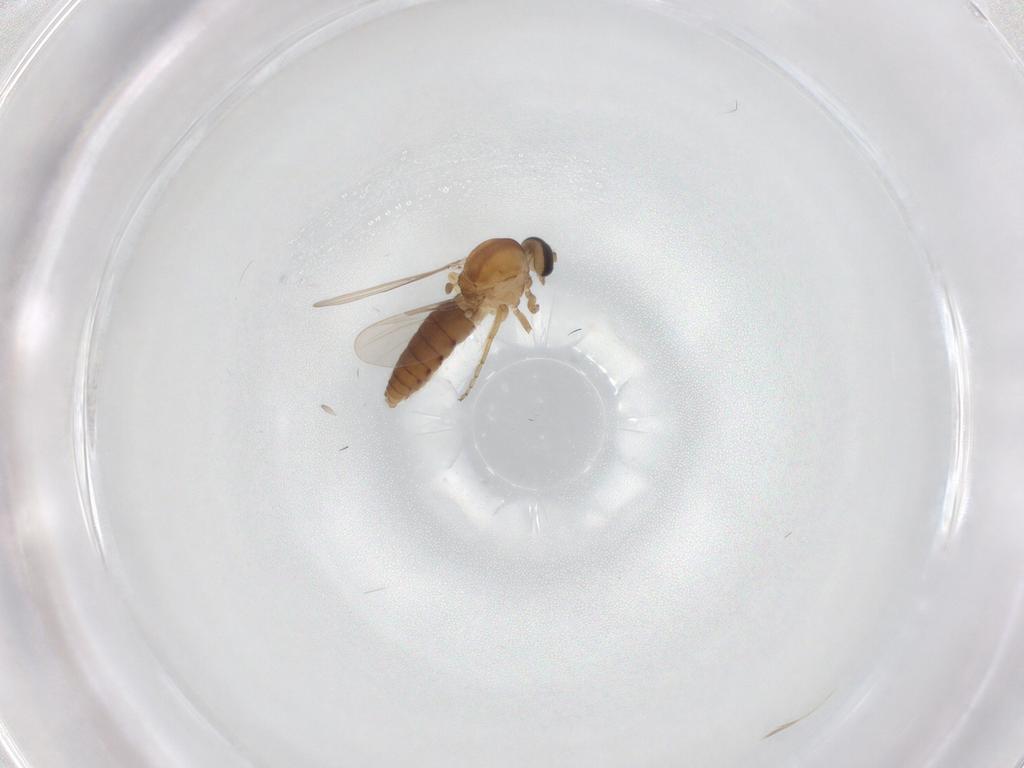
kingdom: Animalia
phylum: Arthropoda
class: Insecta
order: Diptera
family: Ceratopogonidae
